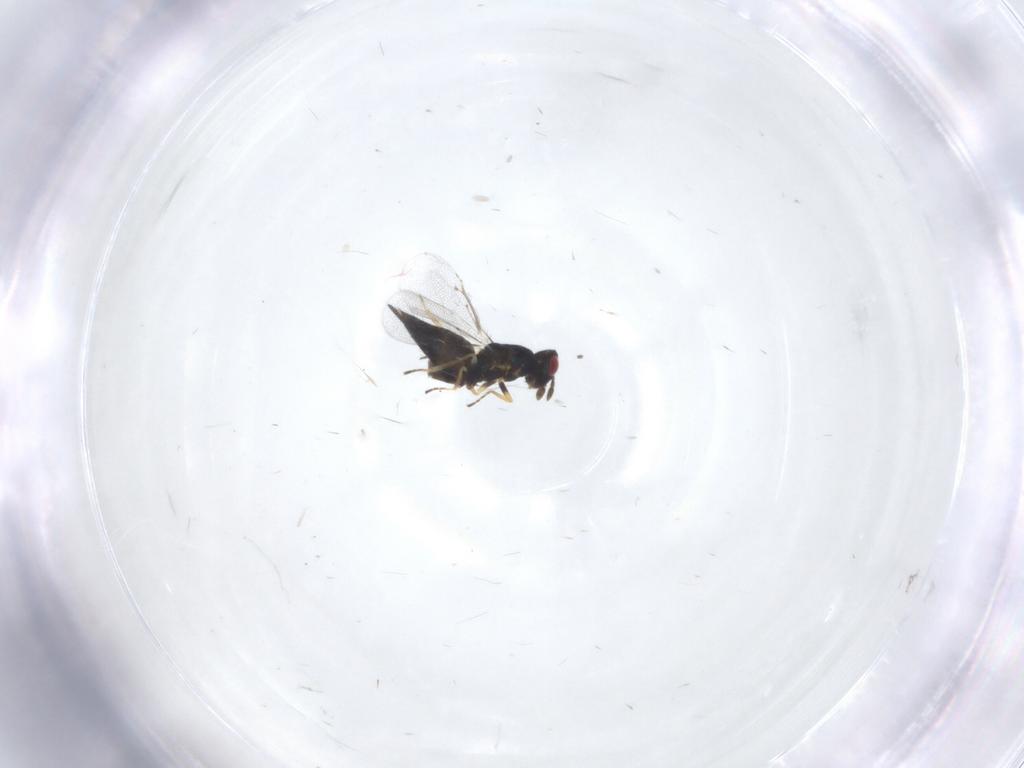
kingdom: Animalia
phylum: Arthropoda
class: Insecta
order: Hymenoptera
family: Eulophidae
